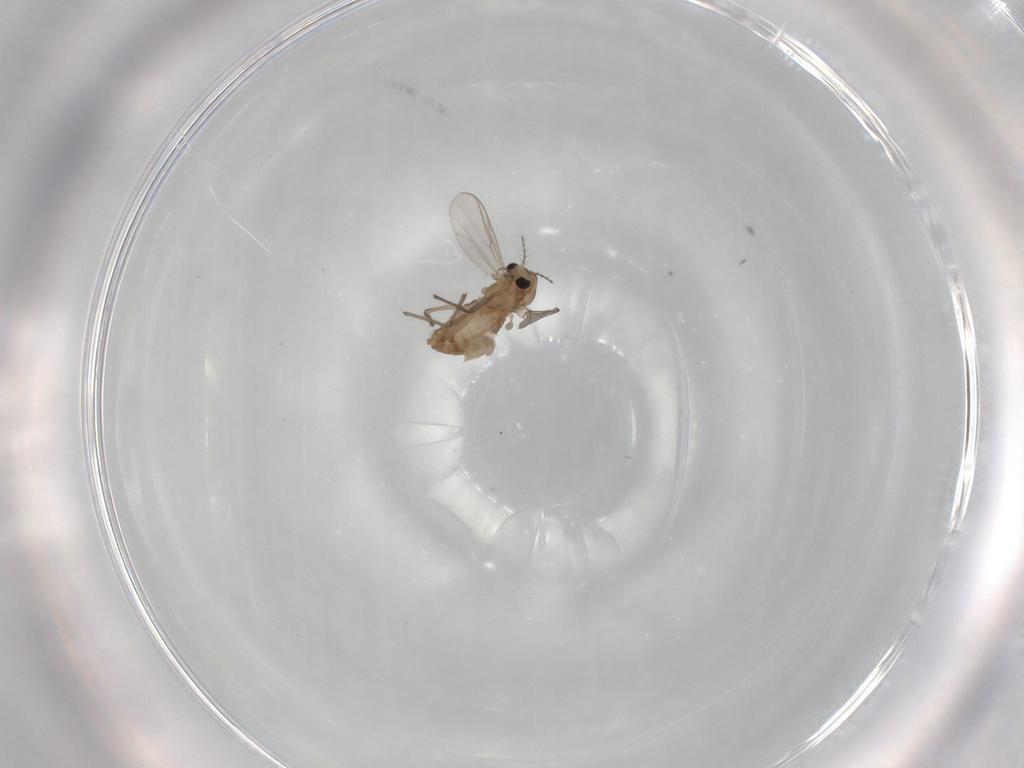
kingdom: Animalia
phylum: Arthropoda
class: Insecta
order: Diptera
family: Chironomidae
